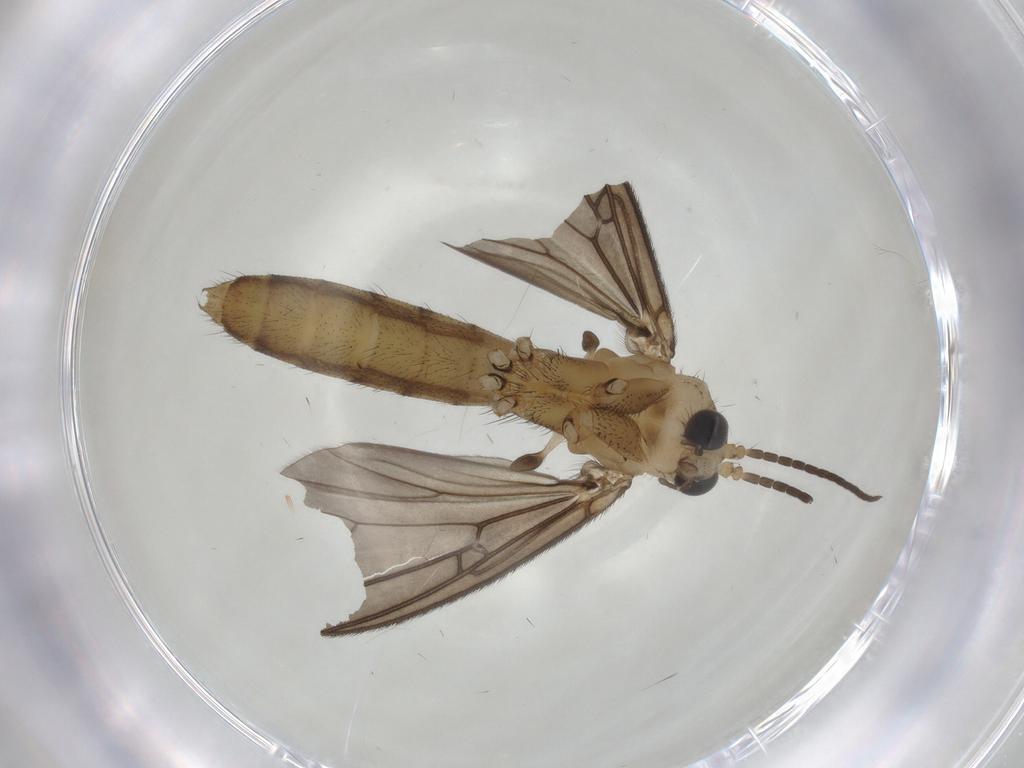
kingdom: Animalia
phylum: Arthropoda
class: Insecta
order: Diptera
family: Mycetophilidae
